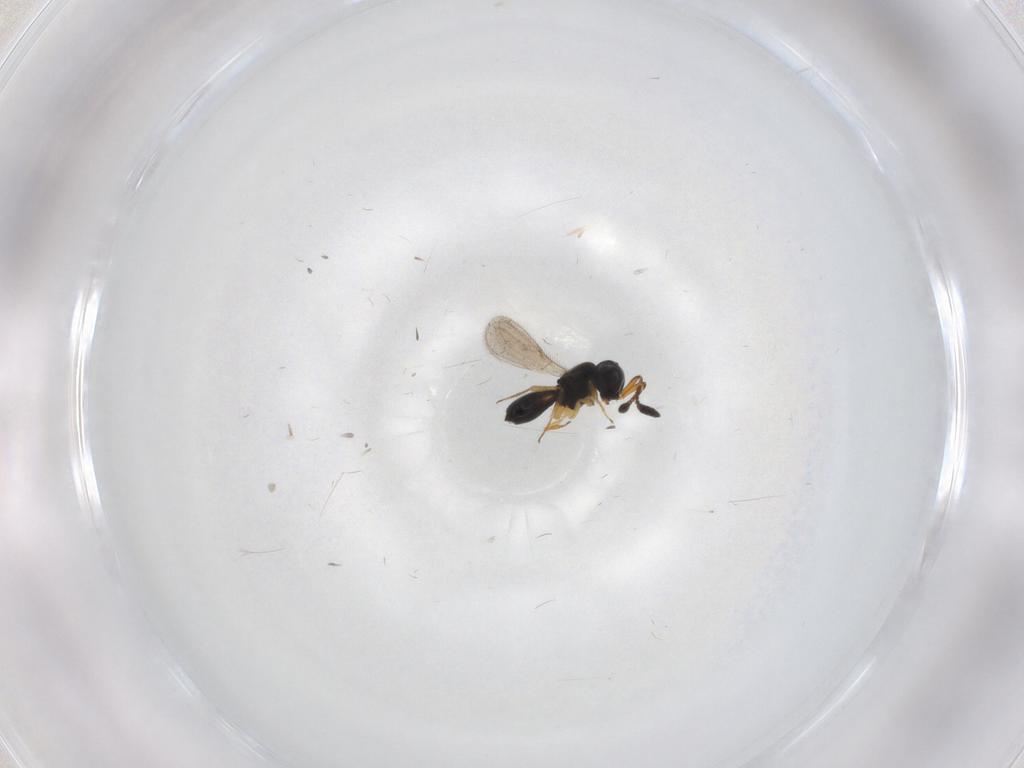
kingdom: Animalia
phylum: Arthropoda
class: Insecta
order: Hymenoptera
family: Scelionidae
